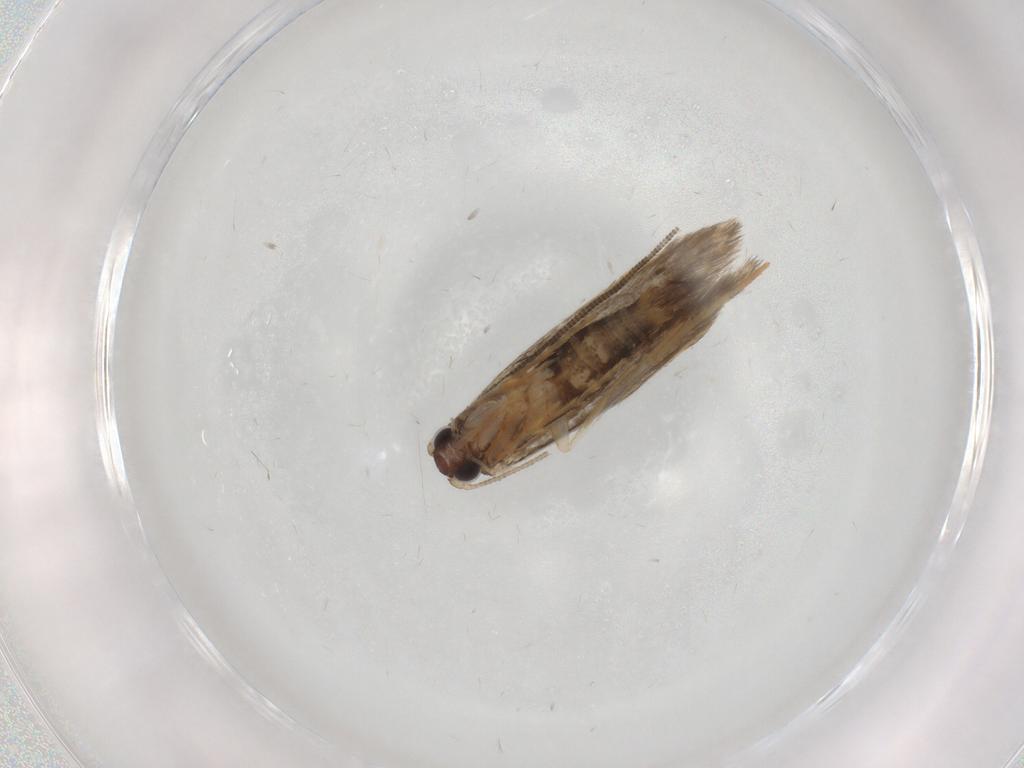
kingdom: Animalia
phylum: Arthropoda
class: Insecta
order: Lepidoptera
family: Tineidae
